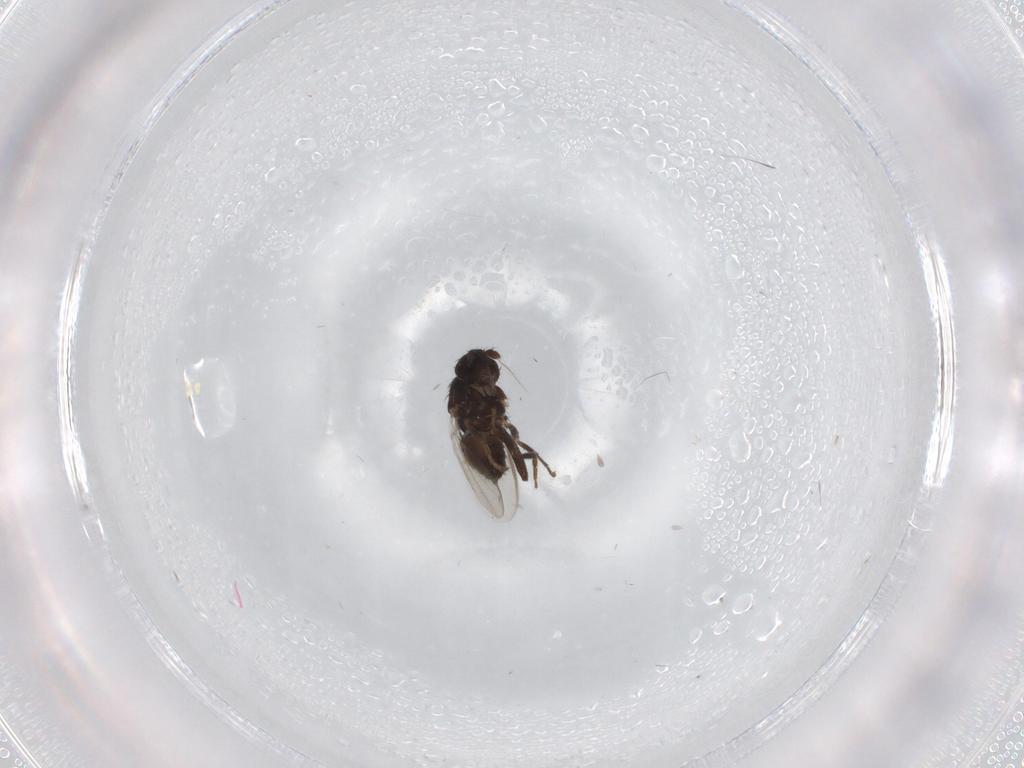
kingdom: Animalia
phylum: Arthropoda
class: Insecta
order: Diptera
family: Sphaeroceridae
